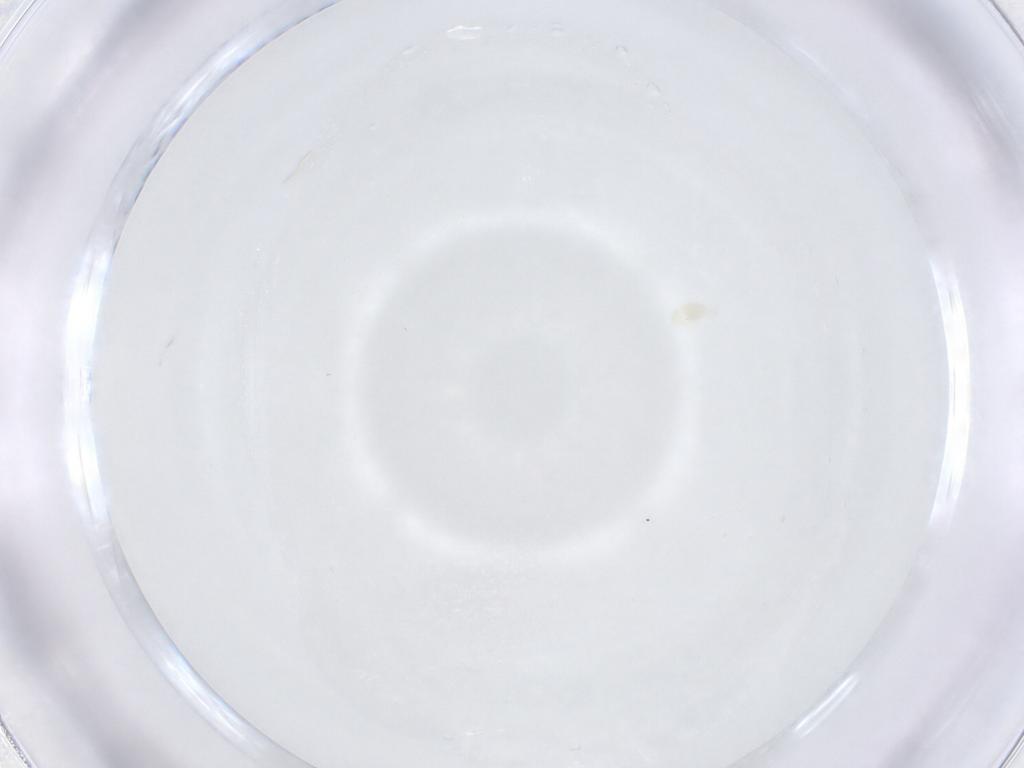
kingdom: Animalia
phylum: Arthropoda
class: Arachnida
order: Trombidiformes
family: Eupodidae
